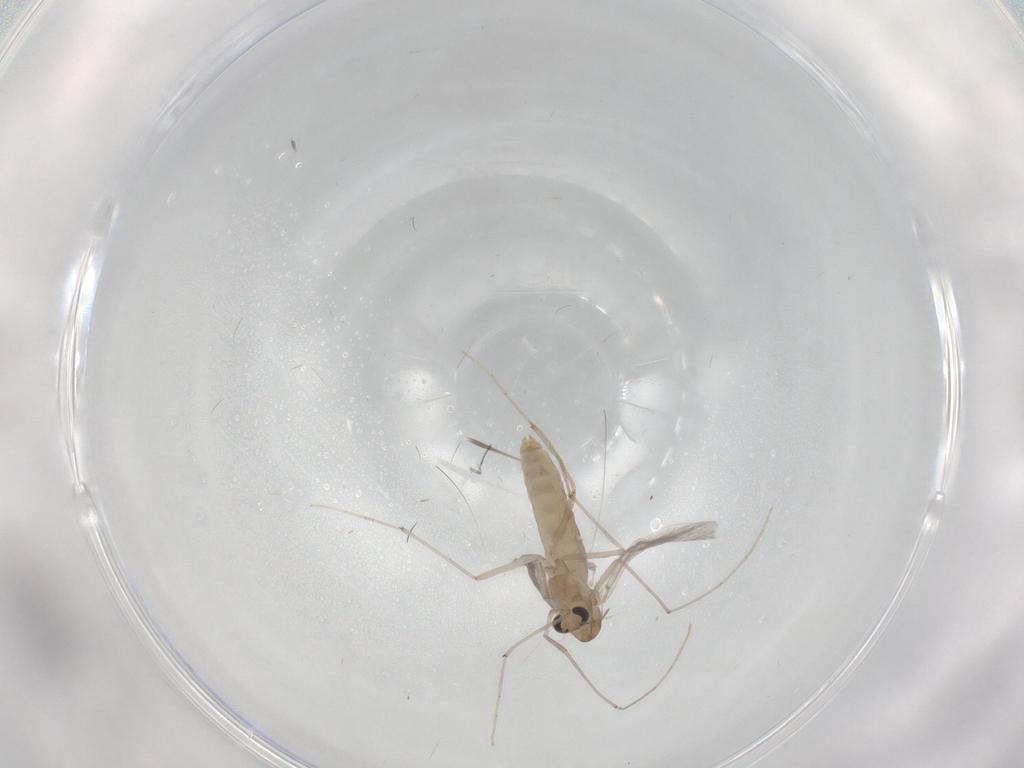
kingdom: Animalia
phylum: Arthropoda
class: Insecta
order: Diptera
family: Chironomidae
